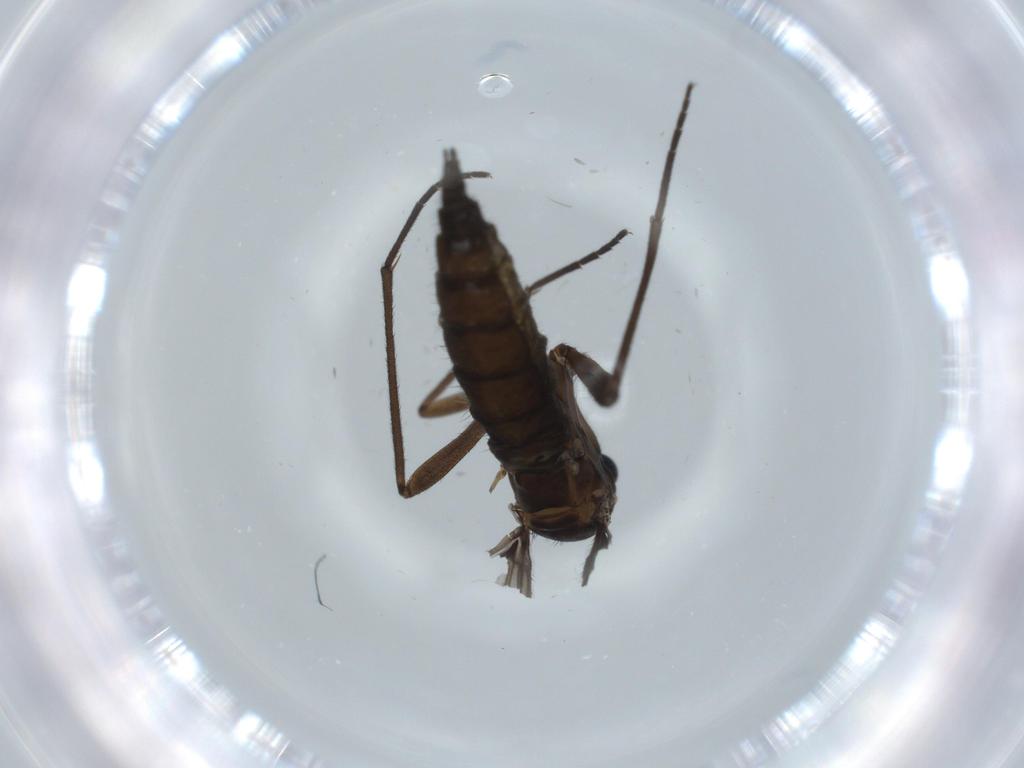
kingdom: Animalia
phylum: Arthropoda
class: Insecta
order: Diptera
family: Sciaridae
